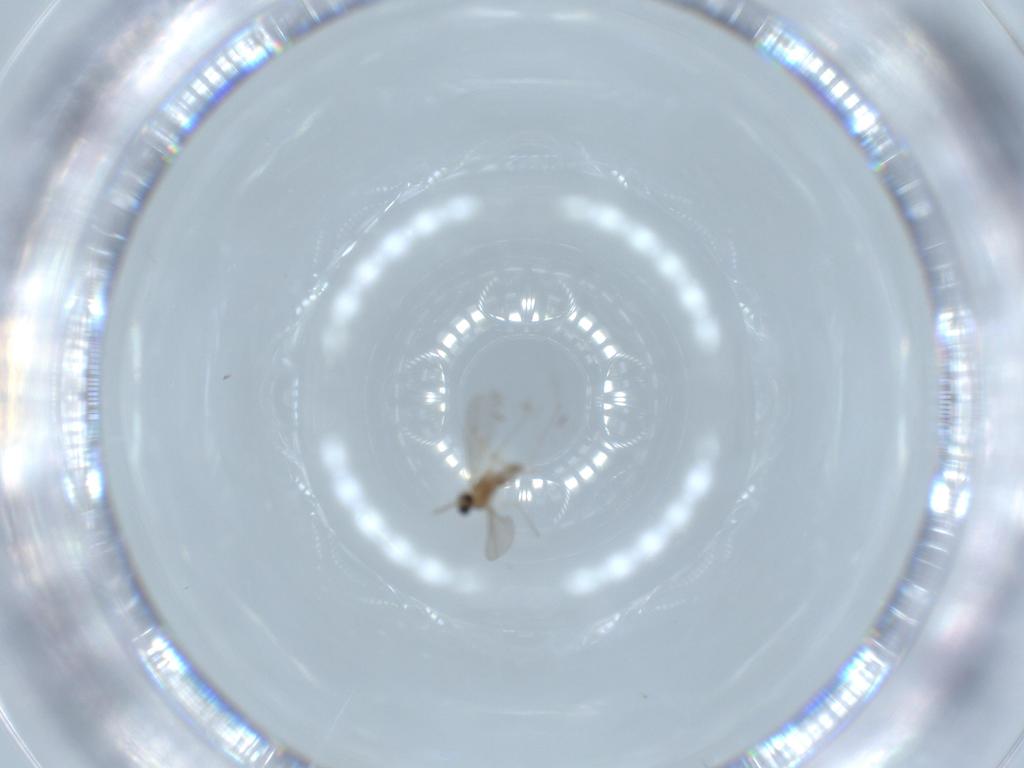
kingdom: Animalia
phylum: Arthropoda
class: Insecta
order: Diptera
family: Cecidomyiidae
